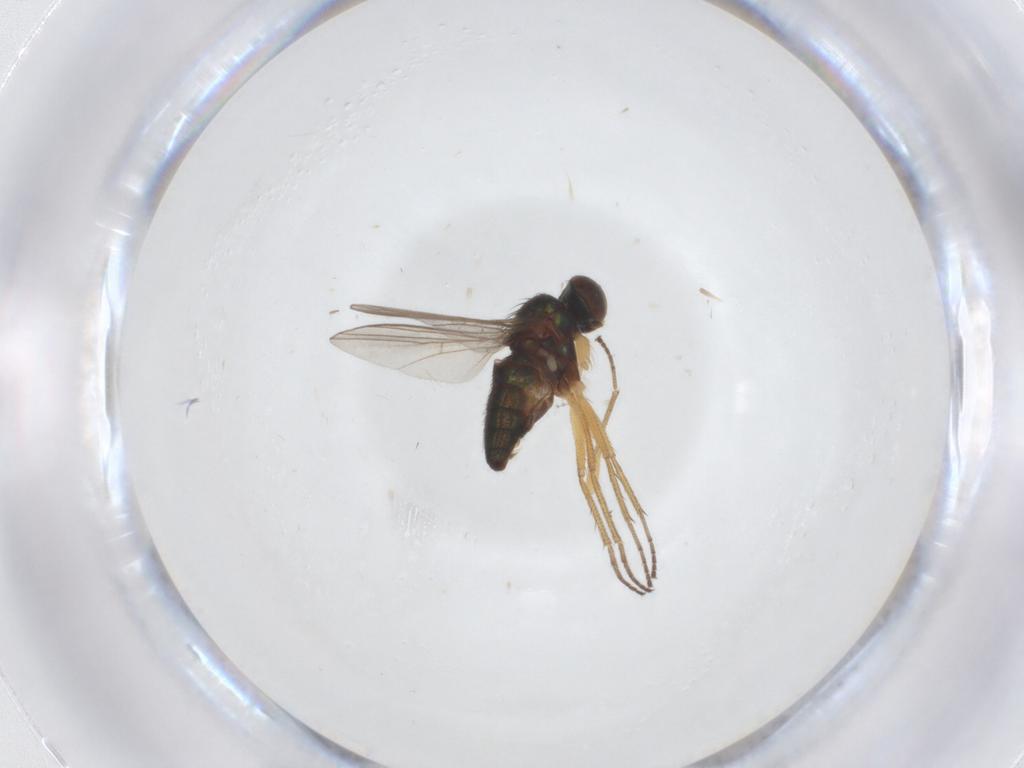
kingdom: Animalia
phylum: Arthropoda
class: Insecta
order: Diptera
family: Dolichopodidae
